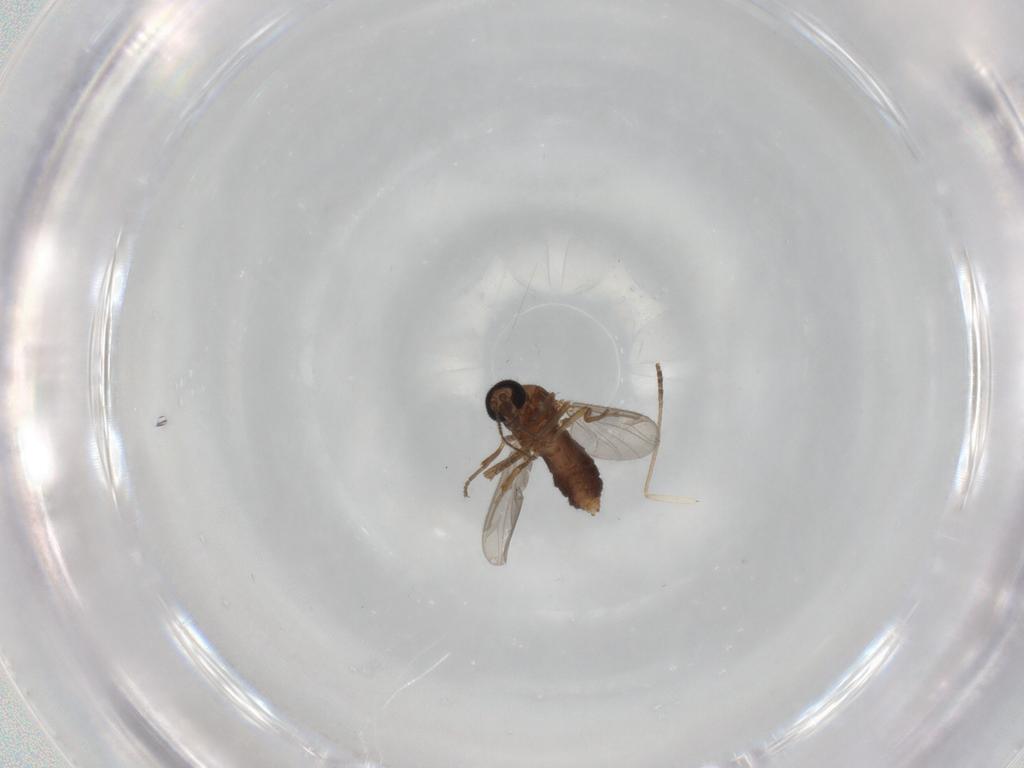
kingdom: Animalia
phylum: Arthropoda
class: Insecta
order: Diptera
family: Ceratopogonidae
